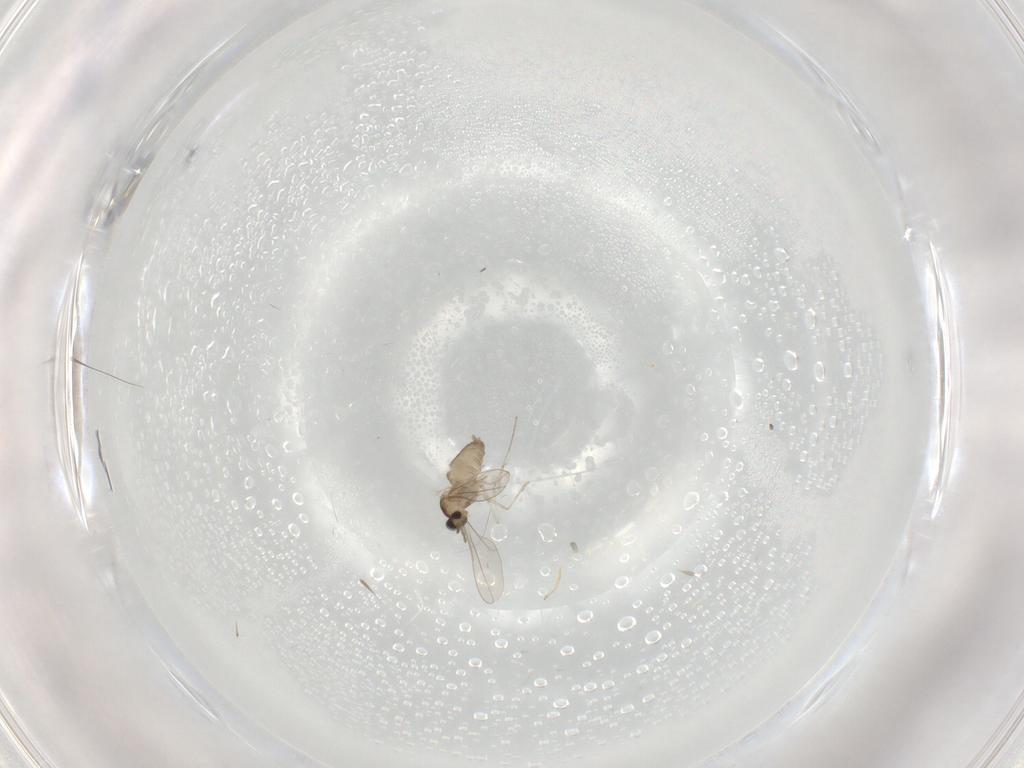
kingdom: Animalia
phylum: Arthropoda
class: Insecta
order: Diptera
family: Cecidomyiidae
